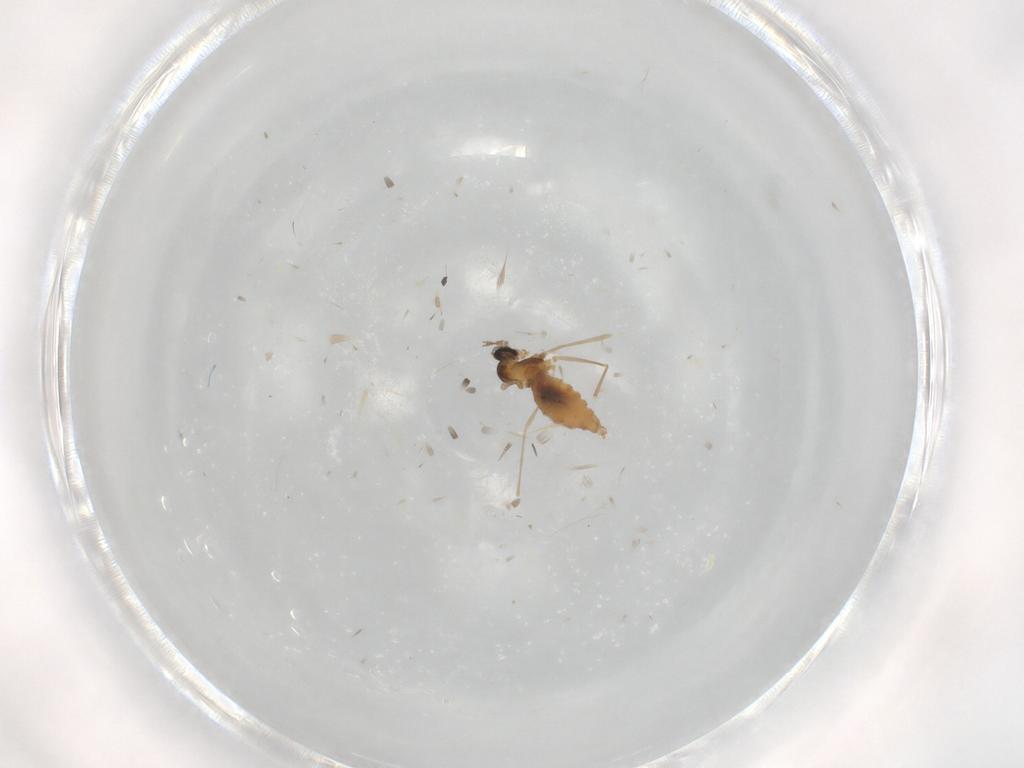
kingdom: Animalia
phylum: Arthropoda
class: Insecta
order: Diptera
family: Cecidomyiidae
